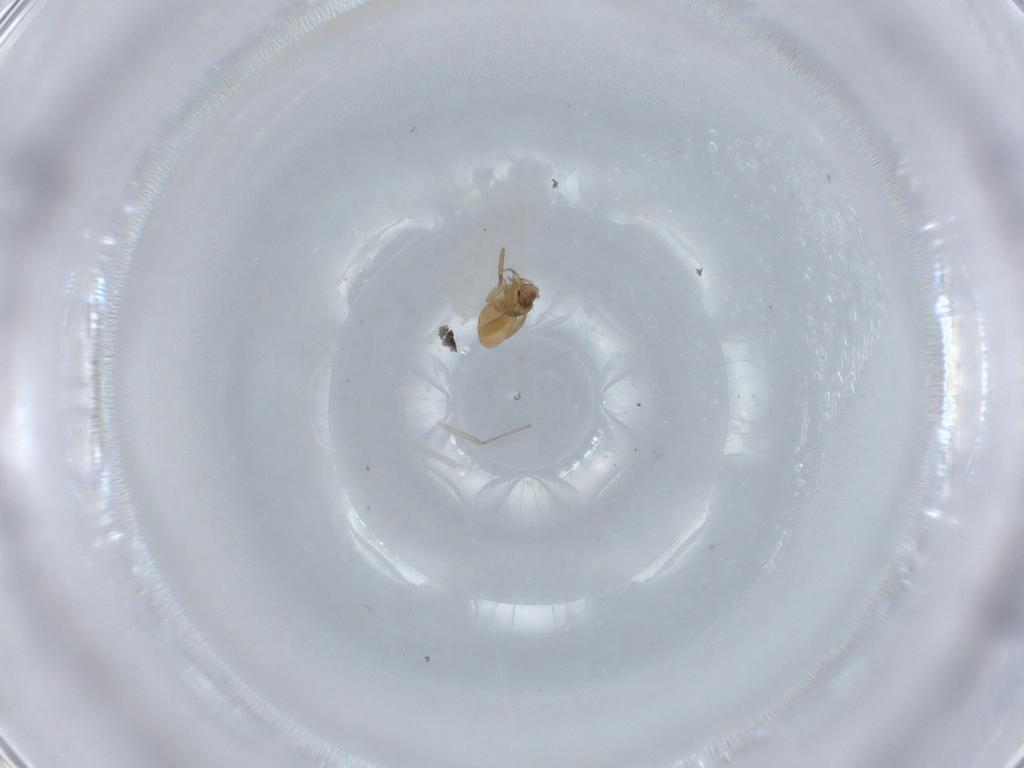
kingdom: Animalia
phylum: Arthropoda
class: Insecta
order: Diptera
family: Chironomidae
